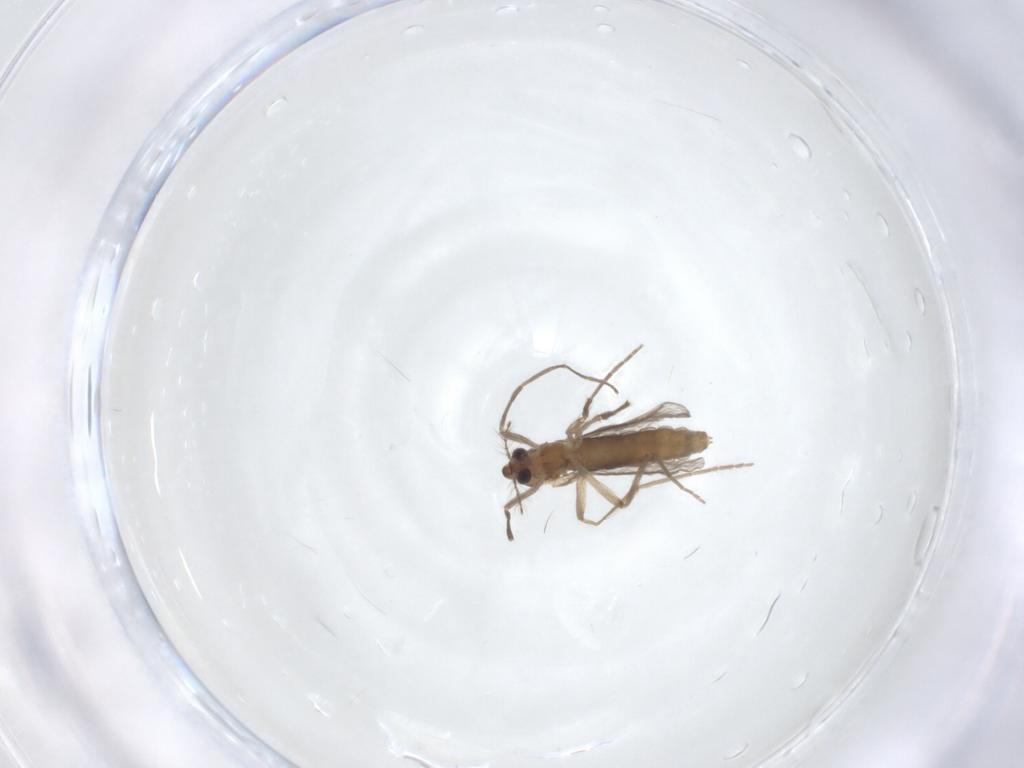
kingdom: Animalia
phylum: Arthropoda
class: Insecta
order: Diptera
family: Chironomidae
